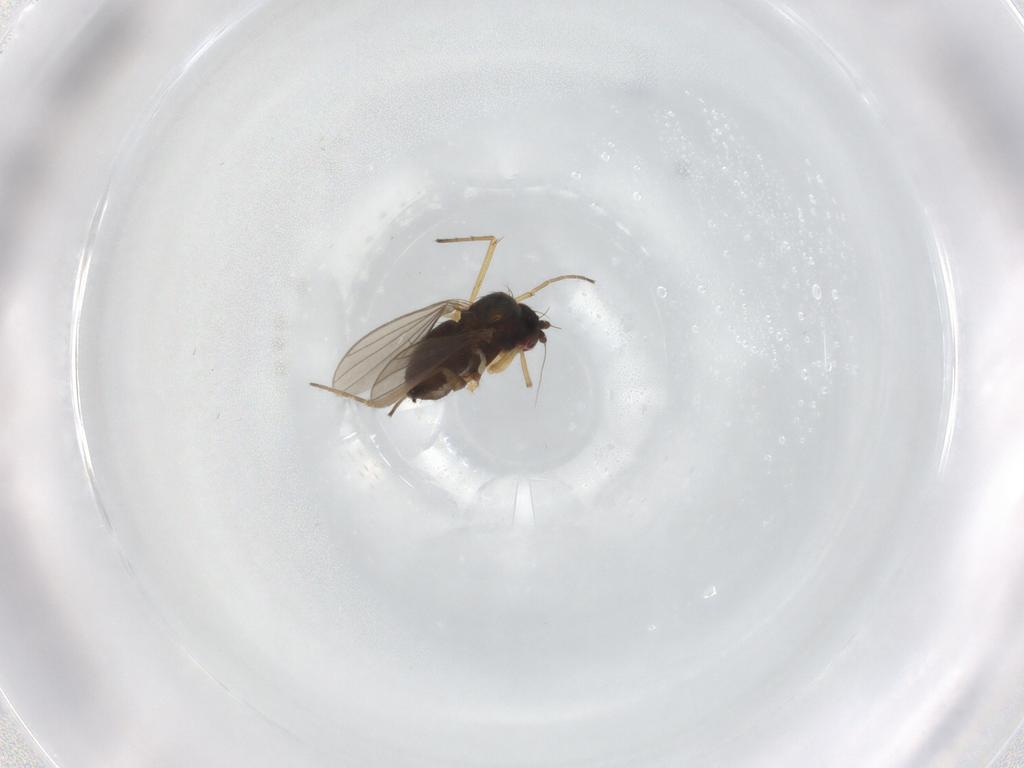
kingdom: Animalia
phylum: Arthropoda
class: Insecta
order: Diptera
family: Dolichopodidae
